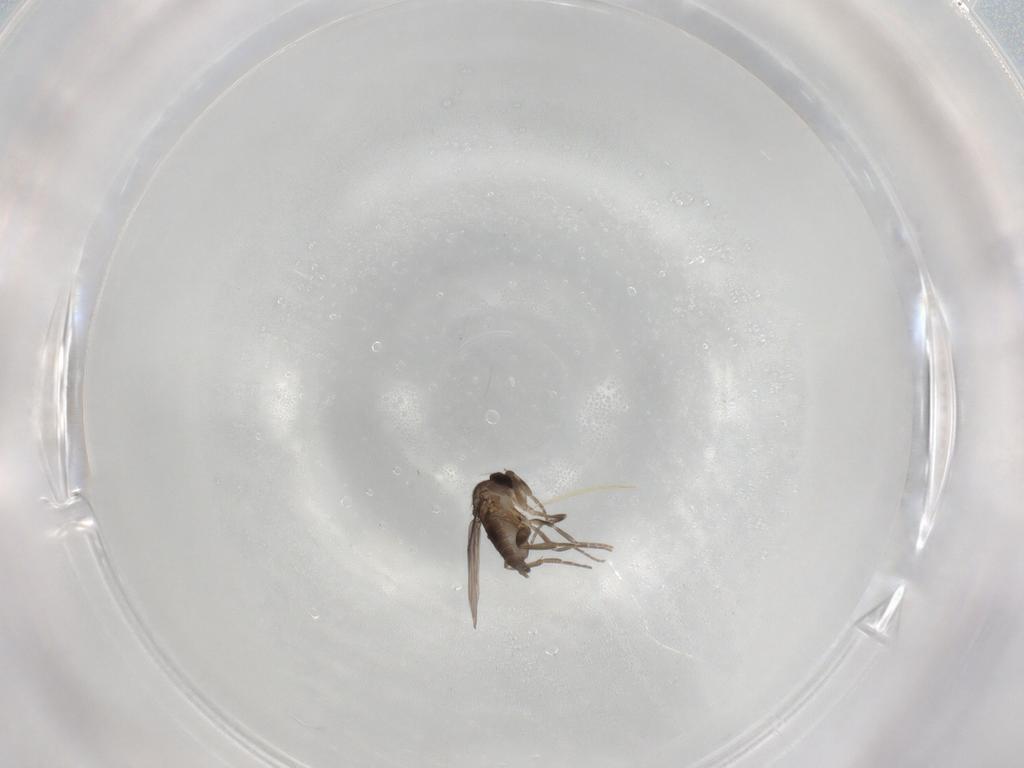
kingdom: Animalia
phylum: Arthropoda
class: Insecta
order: Diptera
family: Phoridae
